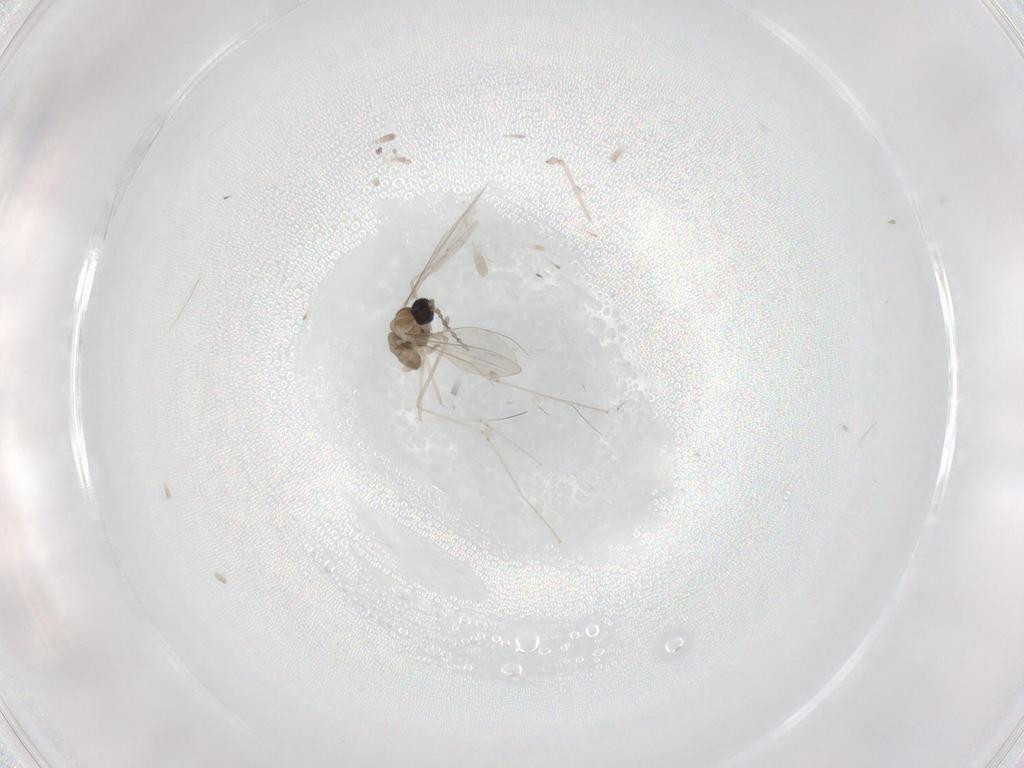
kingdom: Animalia
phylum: Arthropoda
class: Insecta
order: Diptera
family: Cecidomyiidae
